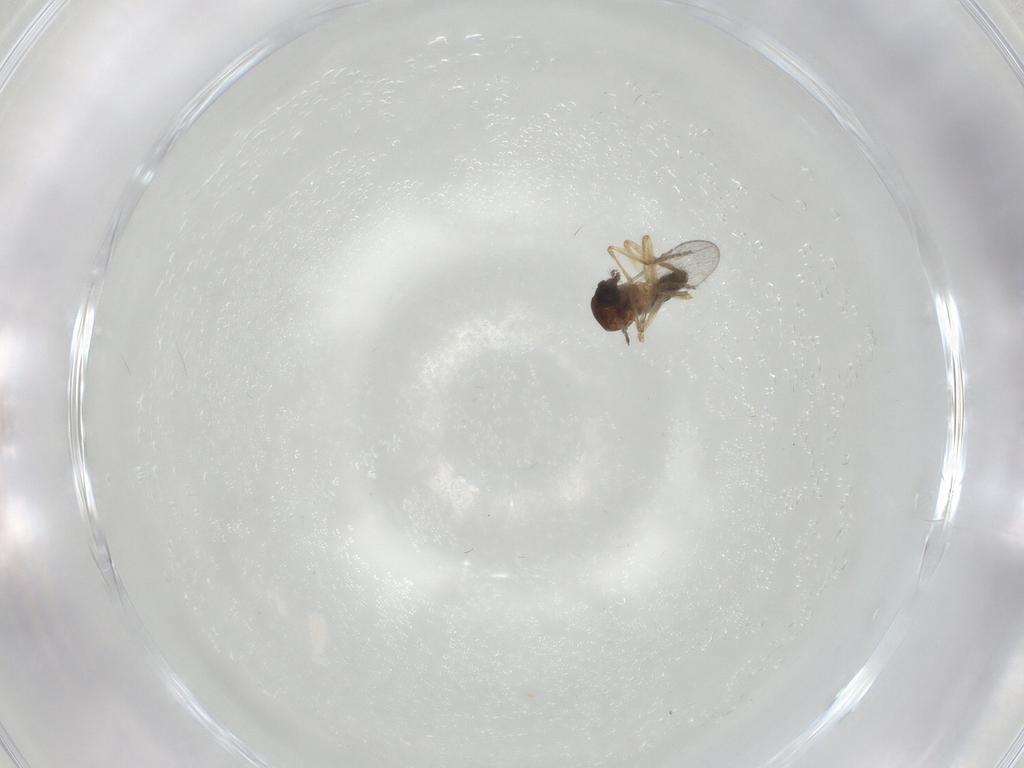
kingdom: Animalia
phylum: Arthropoda
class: Insecta
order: Diptera
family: Ceratopogonidae
